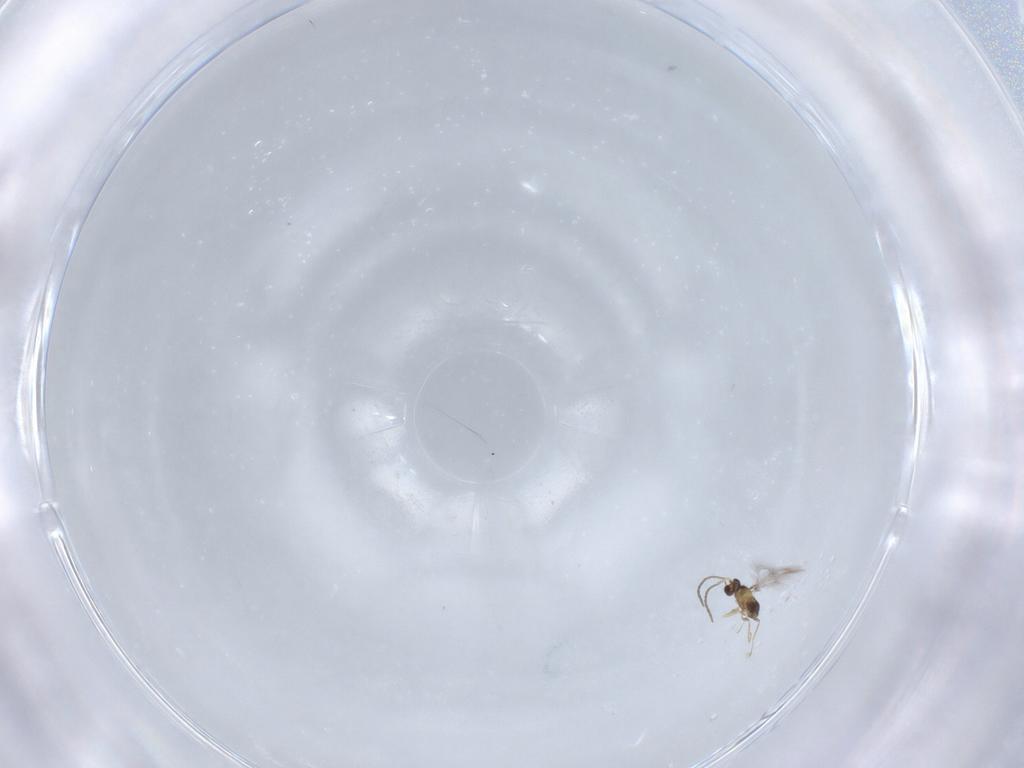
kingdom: Animalia
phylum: Arthropoda
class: Insecta
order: Hymenoptera
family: Mymaridae
